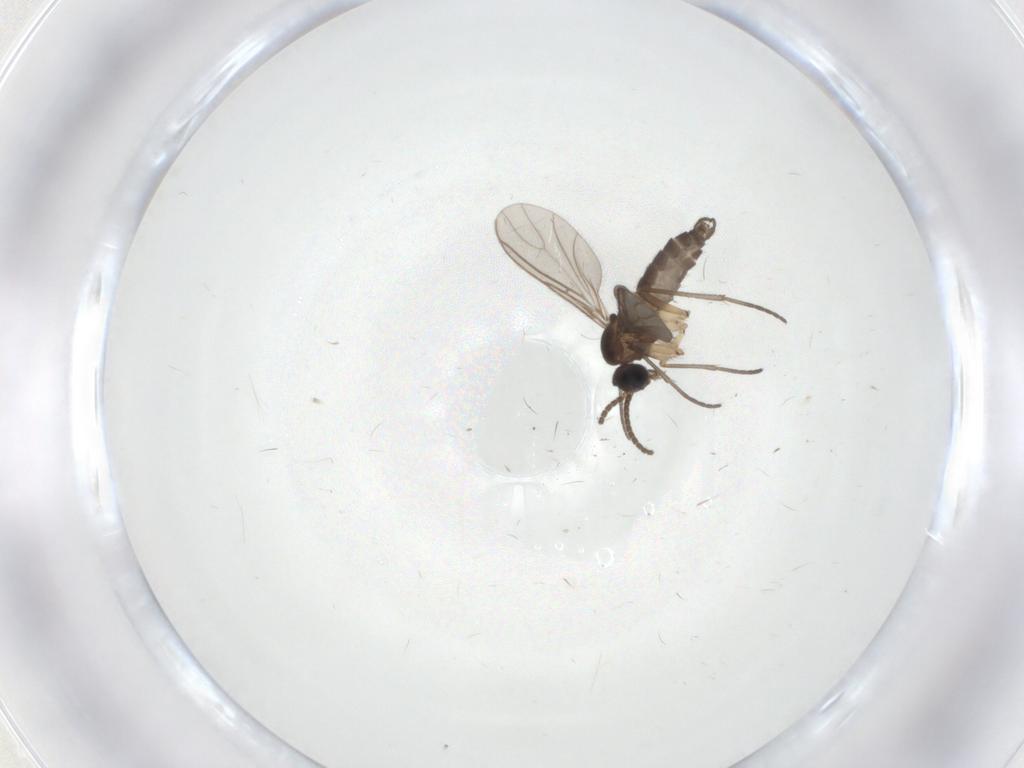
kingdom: Animalia
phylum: Arthropoda
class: Insecta
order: Diptera
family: Sciaridae
